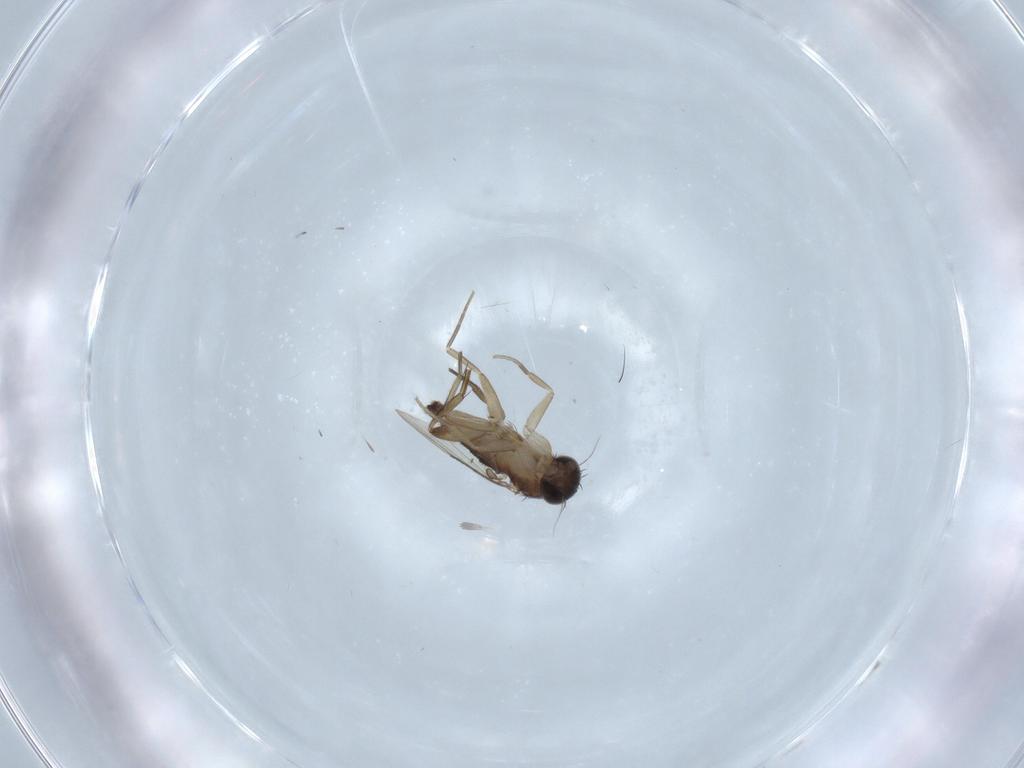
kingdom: Animalia
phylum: Arthropoda
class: Insecta
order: Diptera
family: Phoridae
